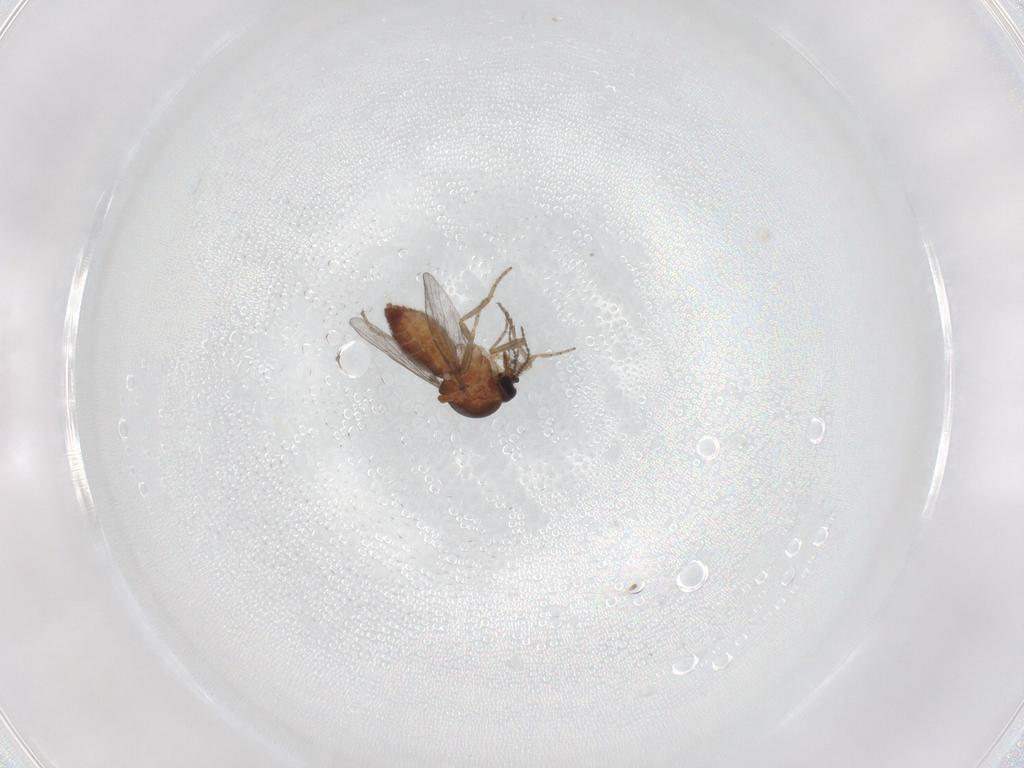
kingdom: Animalia
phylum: Arthropoda
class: Insecta
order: Diptera
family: Ceratopogonidae
